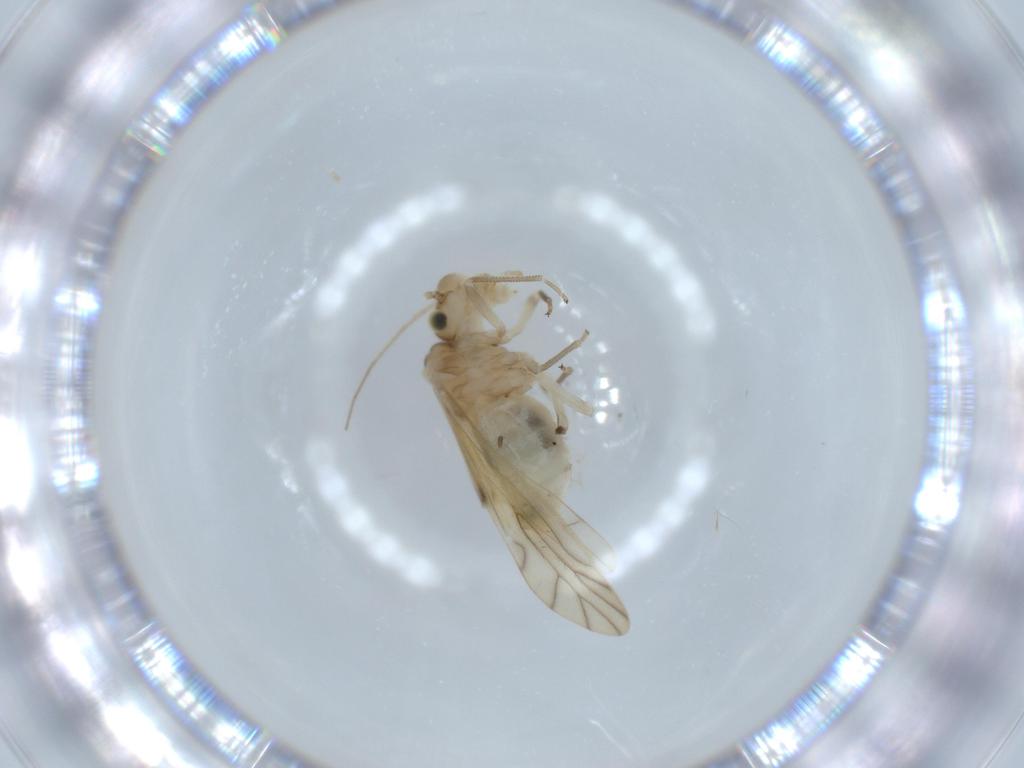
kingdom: Animalia
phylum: Arthropoda
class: Insecta
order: Psocodea
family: Caeciliusidae
